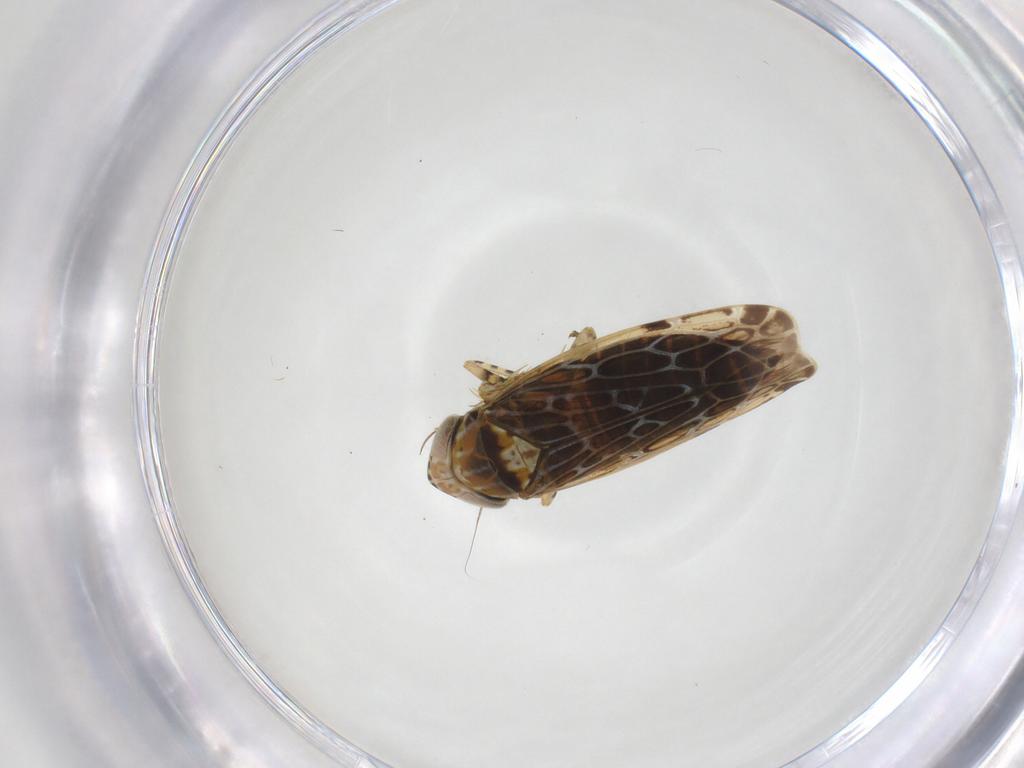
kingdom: Animalia
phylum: Arthropoda
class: Insecta
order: Hemiptera
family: Cicadellidae
